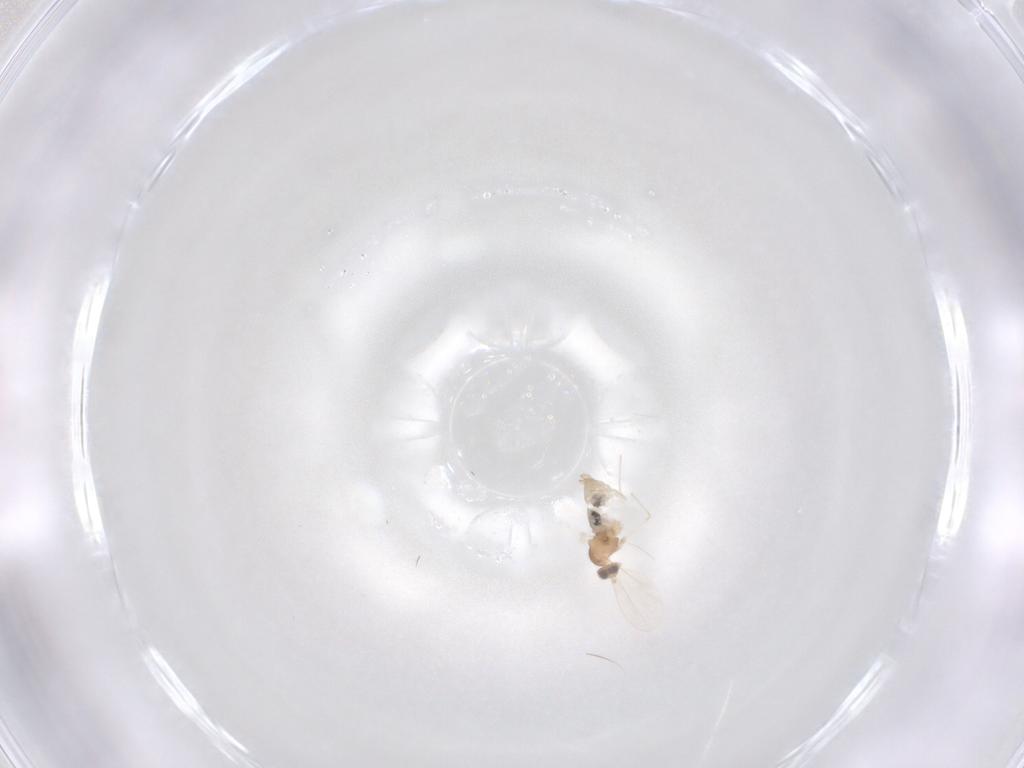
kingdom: Animalia
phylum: Arthropoda
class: Insecta
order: Diptera
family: Cecidomyiidae
